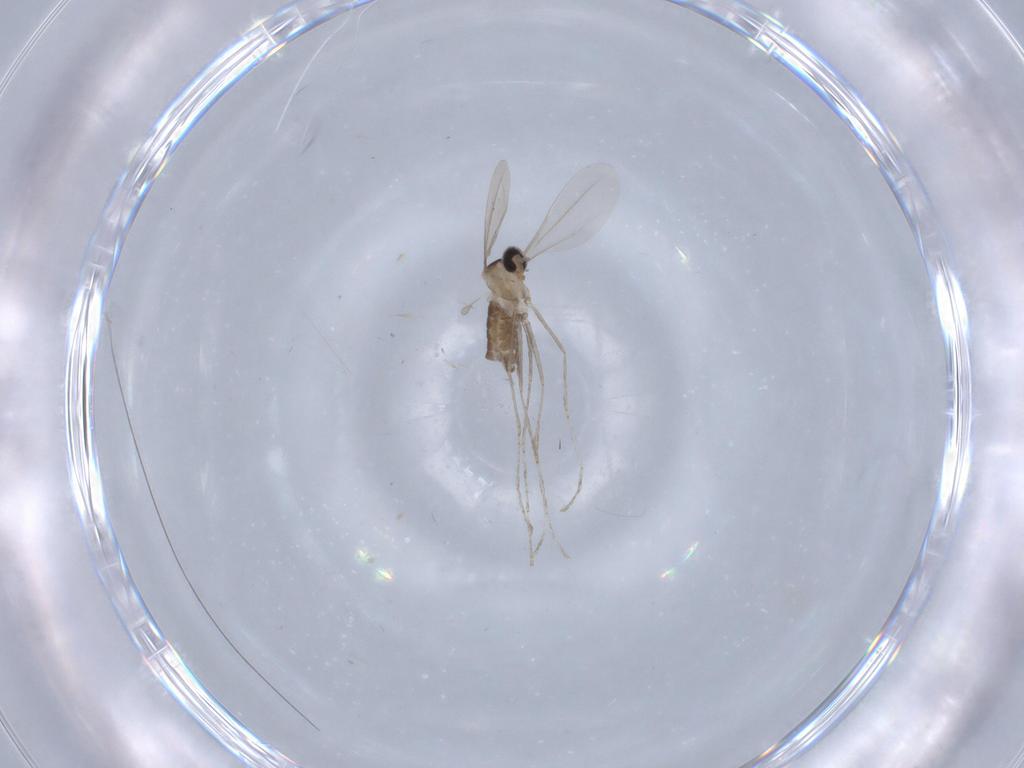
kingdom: Animalia
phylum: Arthropoda
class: Insecta
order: Diptera
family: Cecidomyiidae
